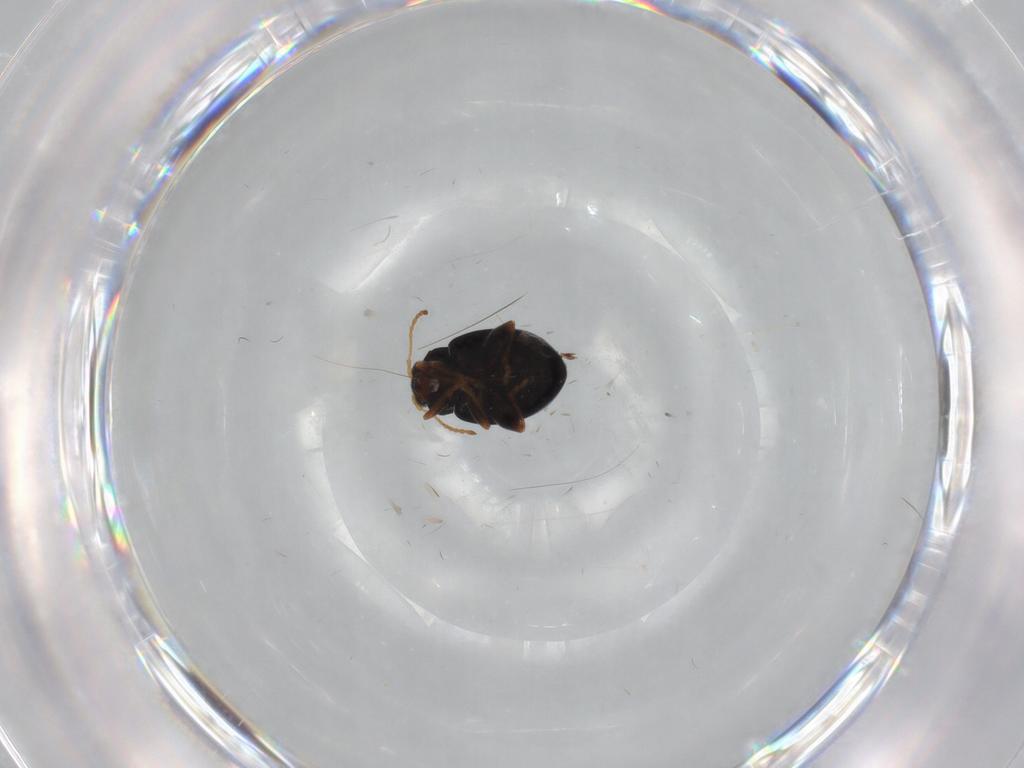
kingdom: Animalia
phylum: Arthropoda
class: Insecta
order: Coleoptera
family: Chrysomelidae
